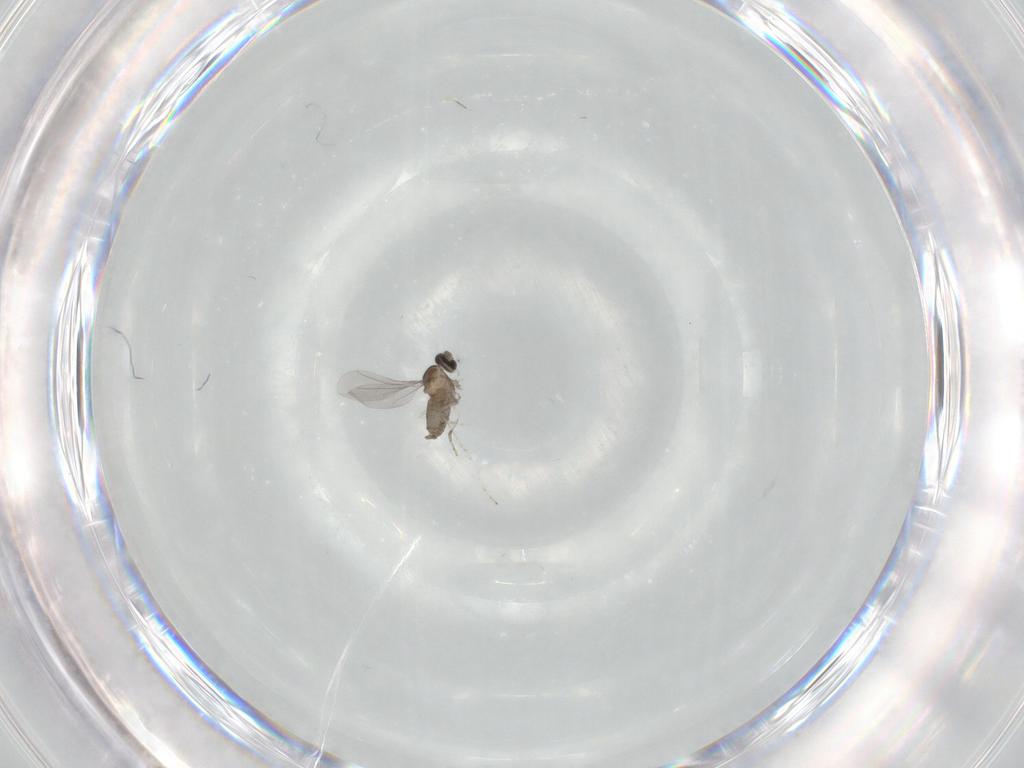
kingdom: Animalia
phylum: Arthropoda
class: Insecta
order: Diptera
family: Cecidomyiidae
